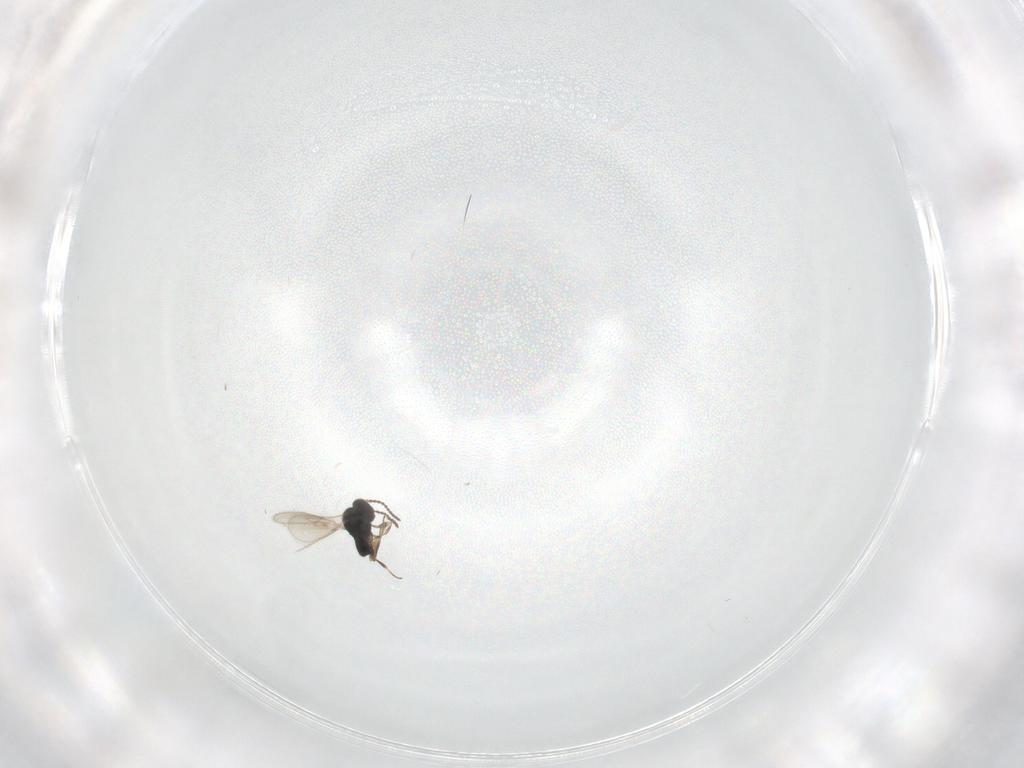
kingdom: Animalia
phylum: Arthropoda
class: Insecta
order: Hymenoptera
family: Scelionidae
